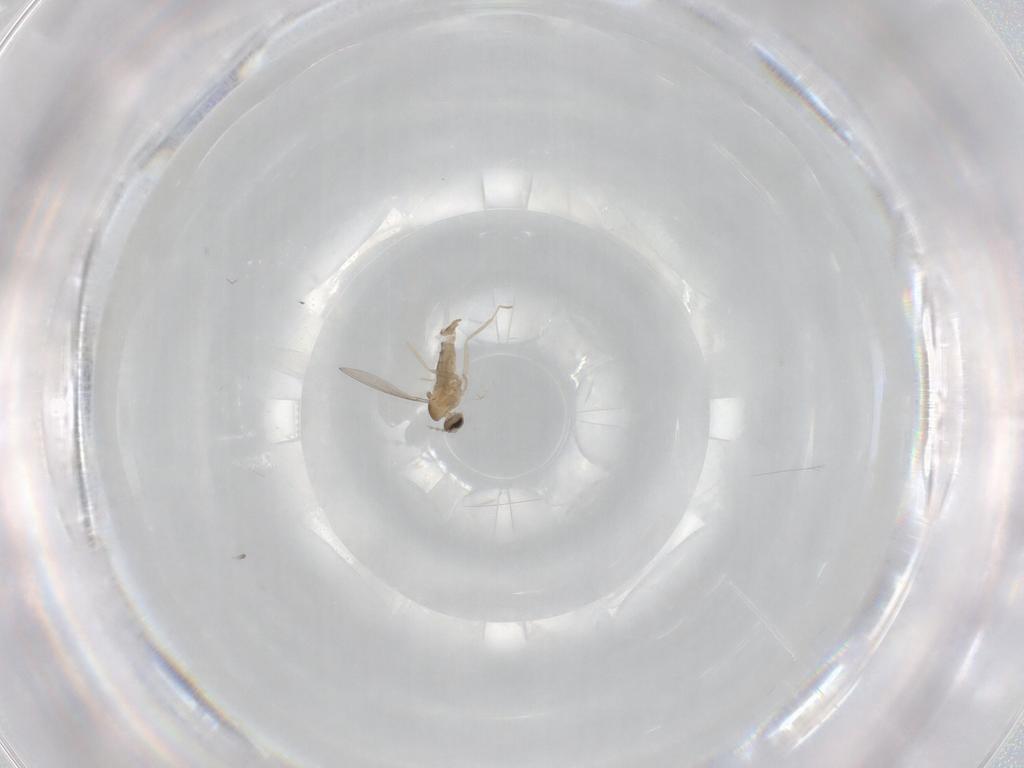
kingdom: Animalia
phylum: Arthropoda
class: Insecta
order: Diptera
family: Cecidomyiidae
